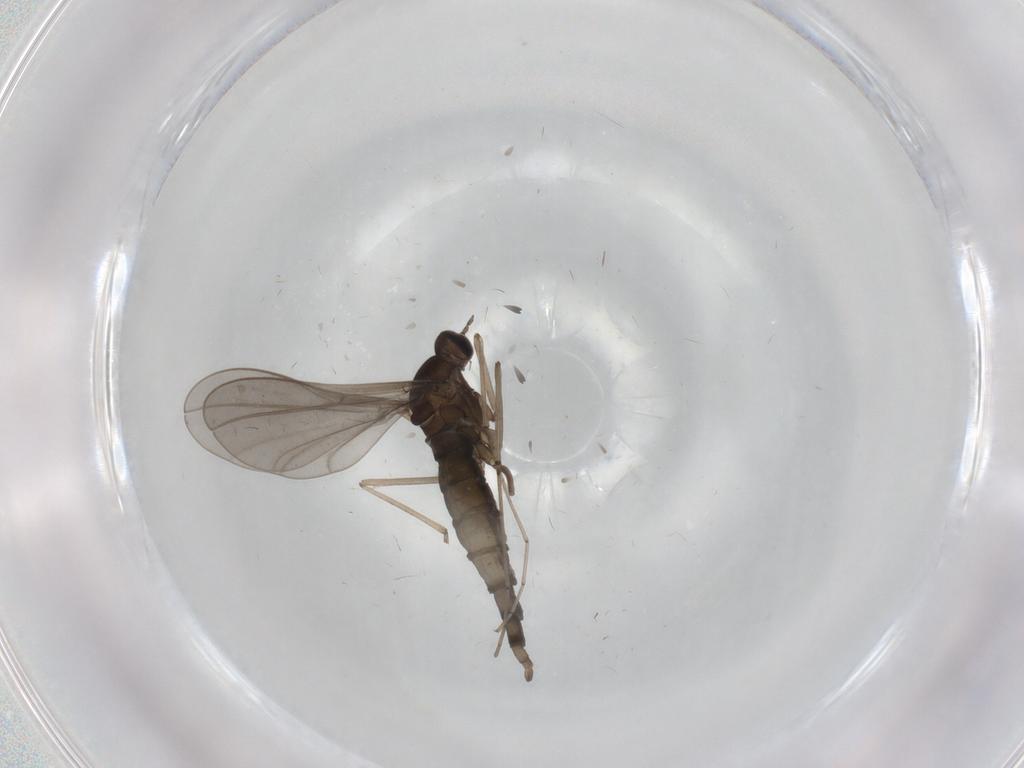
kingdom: Animalia
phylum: Arthropoda
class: Insecta
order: Diptera
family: Cecidomyiidae
